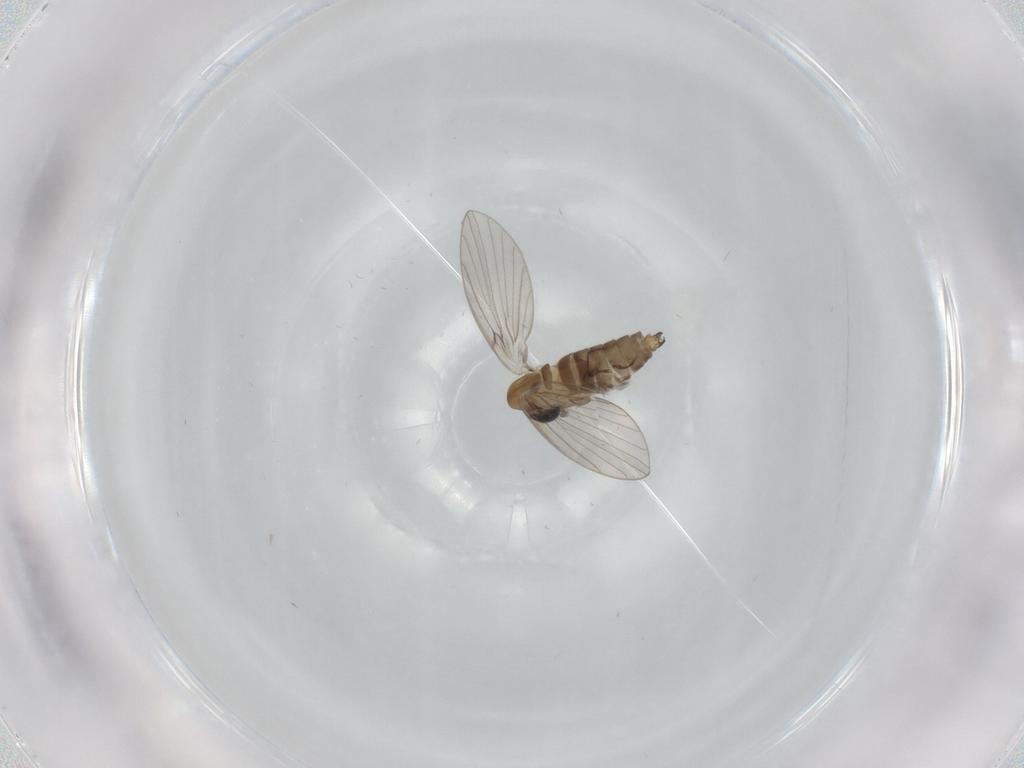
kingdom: Animalia
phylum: Arthropoda
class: Insecta
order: Diptera
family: Psychodidae
